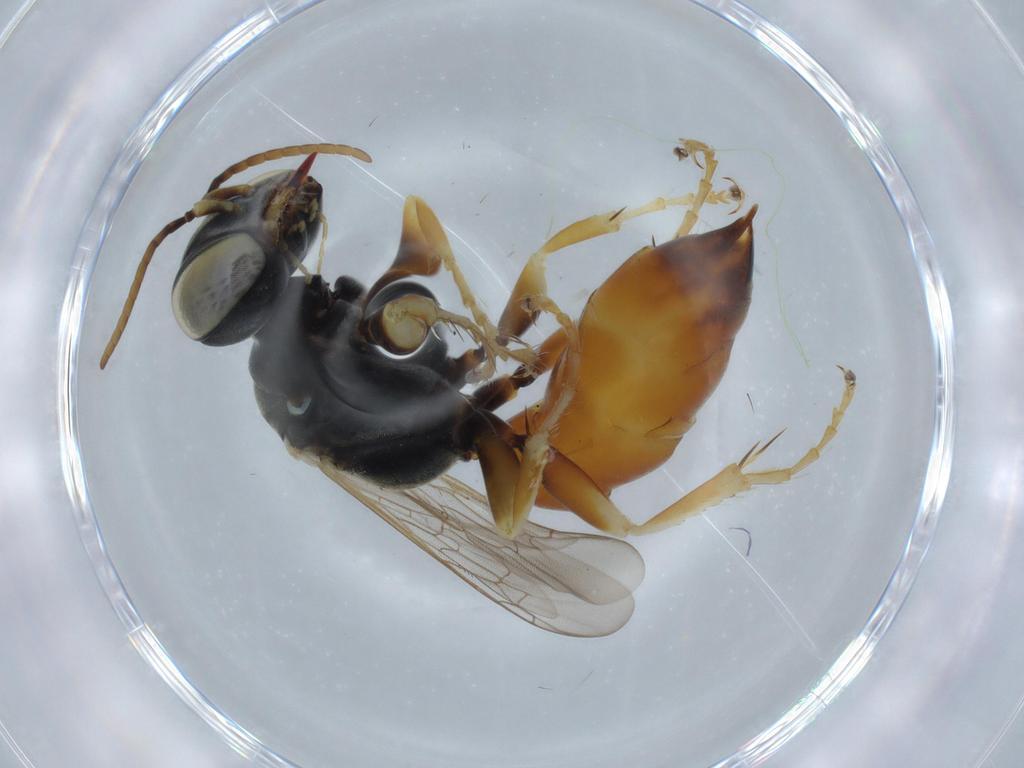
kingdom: Animalia
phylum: Arthropoda
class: Insecta
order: Hymenoptera
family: Crabronidae
